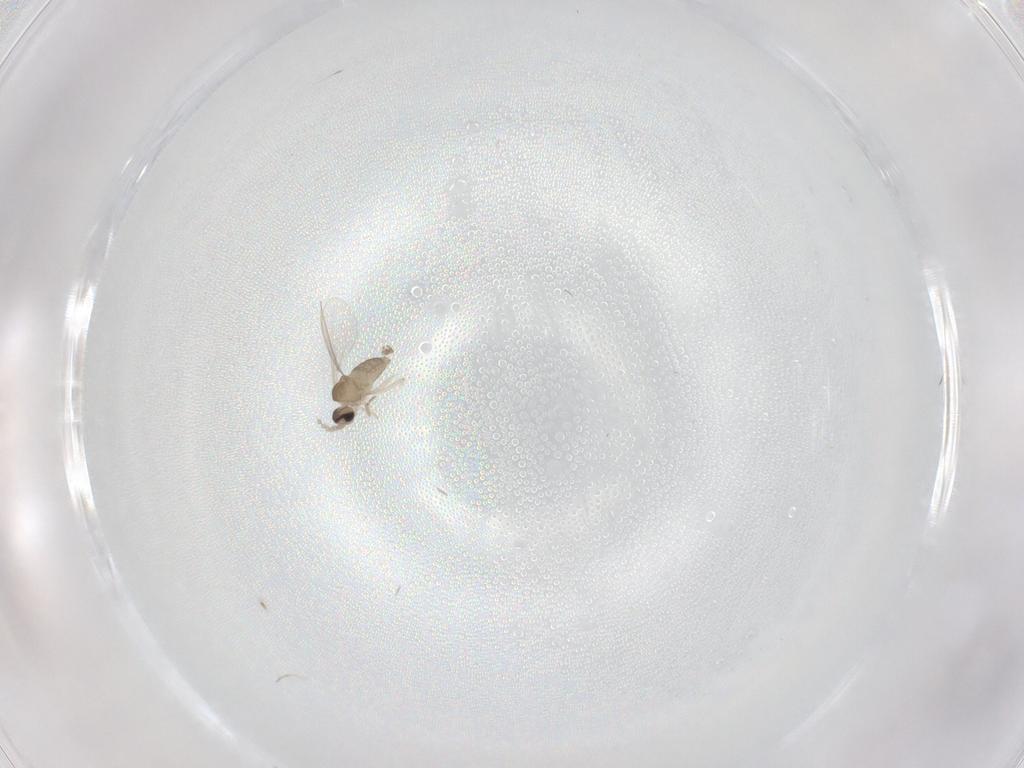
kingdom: Animalia
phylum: Arthropoda
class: Insecta
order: Diptera
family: Cecidomyiidae
